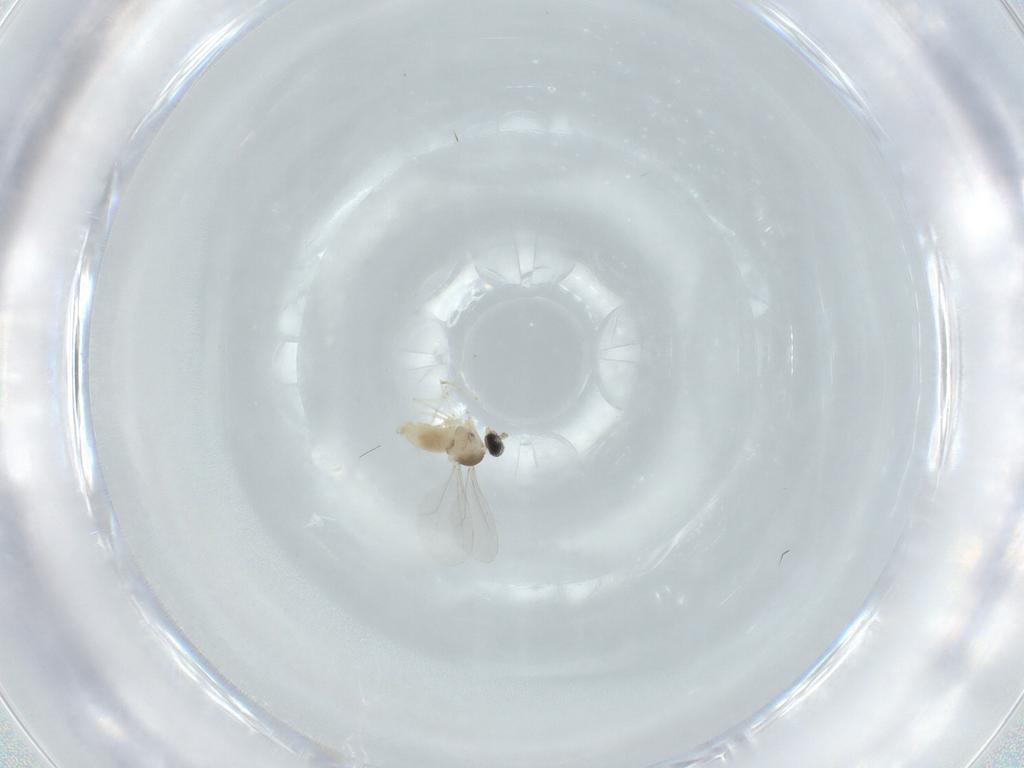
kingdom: Animalia
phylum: Arthropoda
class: Insecta
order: Diptera
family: Cecidomyiidae
